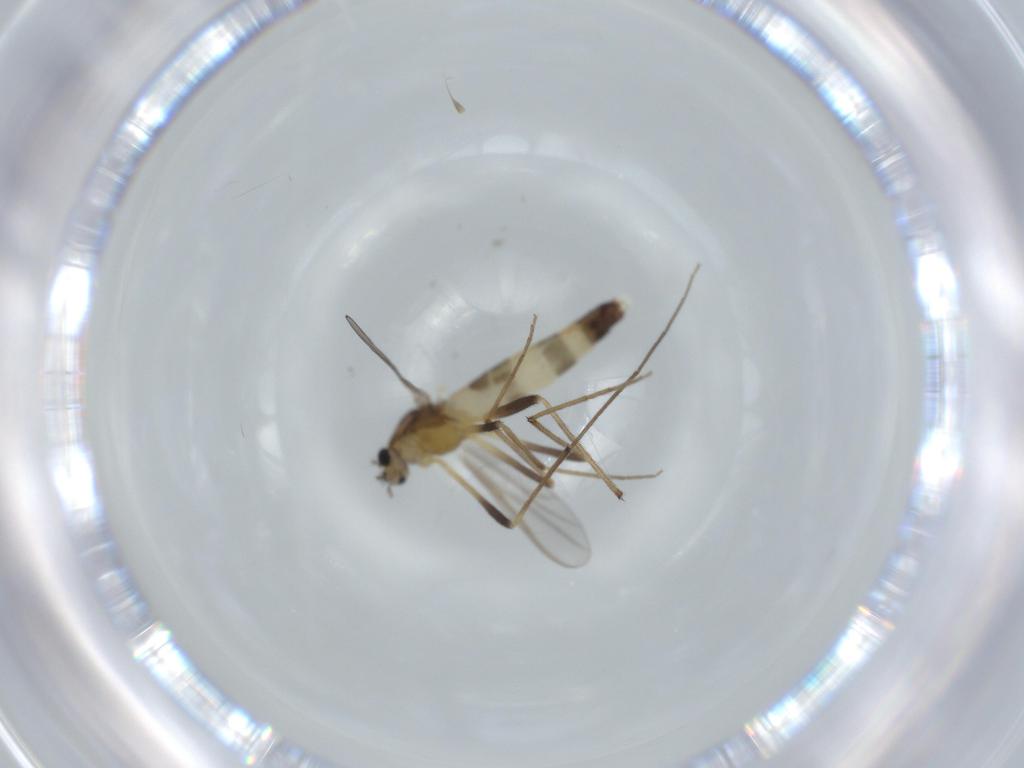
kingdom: Animalia
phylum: Arthropoda
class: Insecta
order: Diptera
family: Chironomidae
